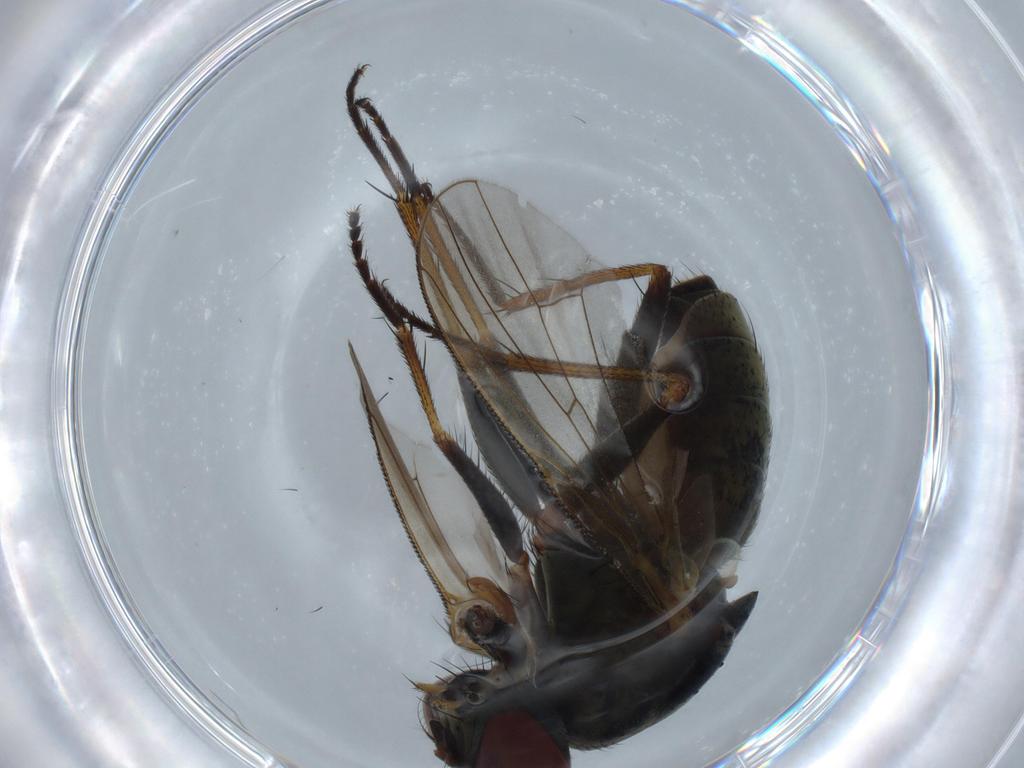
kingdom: Animalia
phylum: Arthropoda
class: Insecta
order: Diptera
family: Muscidae
